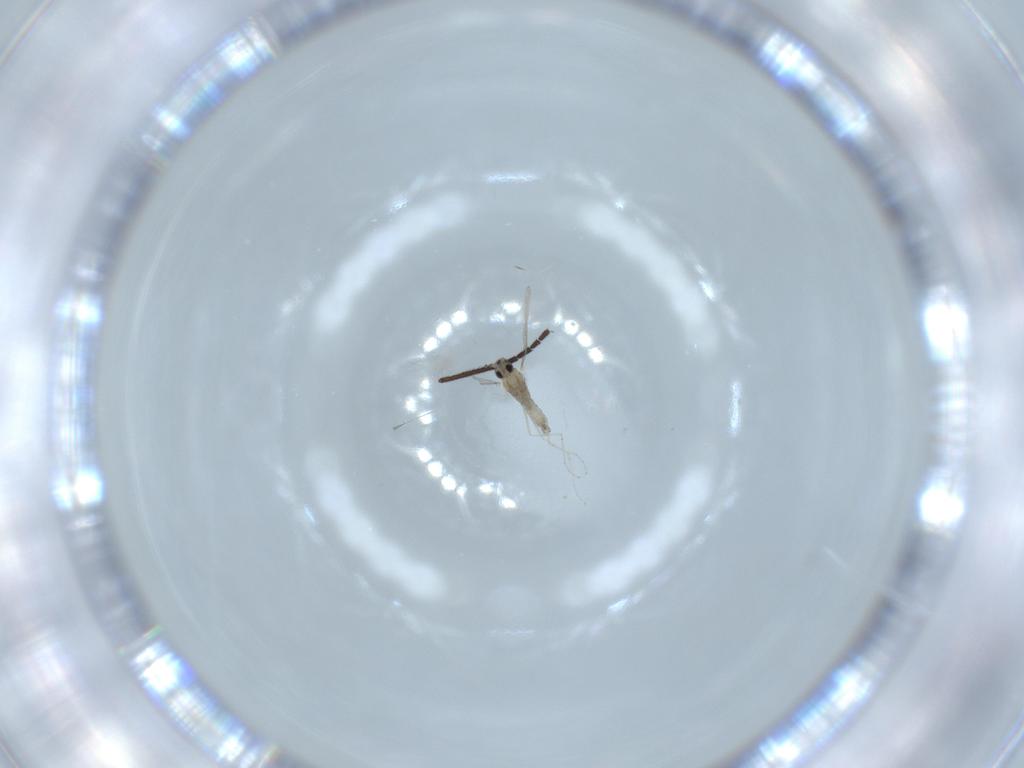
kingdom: Animalia
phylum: Arthropoda
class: Insecta
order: Diptera
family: Cecidomyiidae
